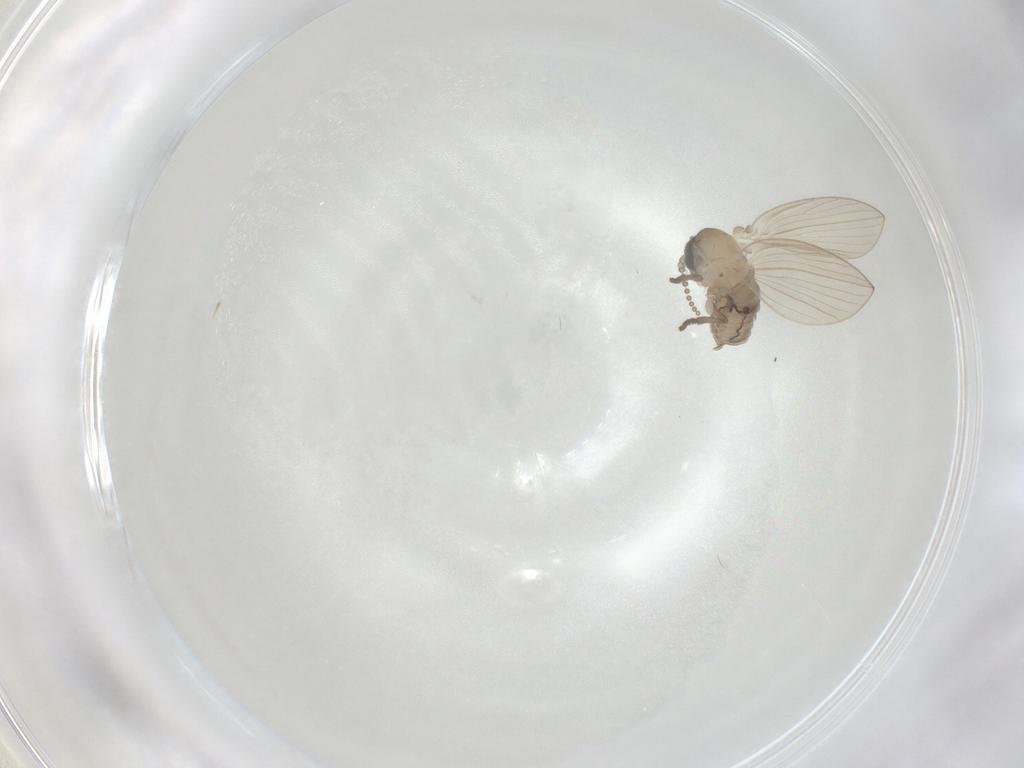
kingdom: Animalia
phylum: Arthropoda
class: Insecta
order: Diptera
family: Psychodidae
